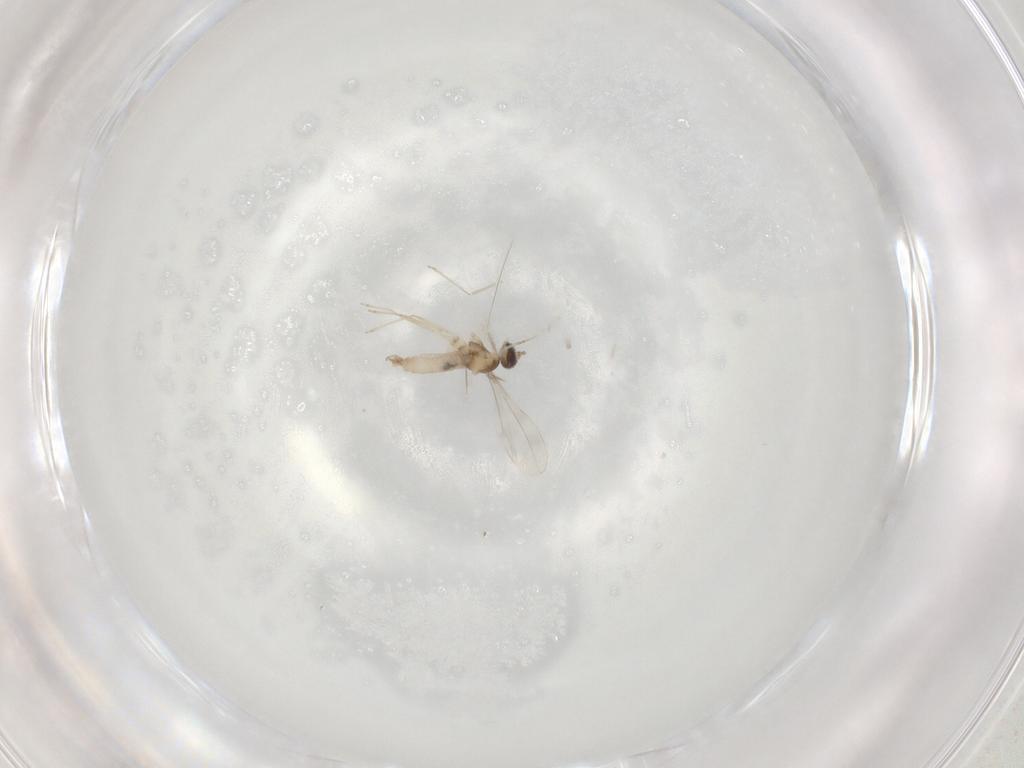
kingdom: Animalia
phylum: Arthropoda
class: Insecta
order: Diptera
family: Cecidomyiidae
